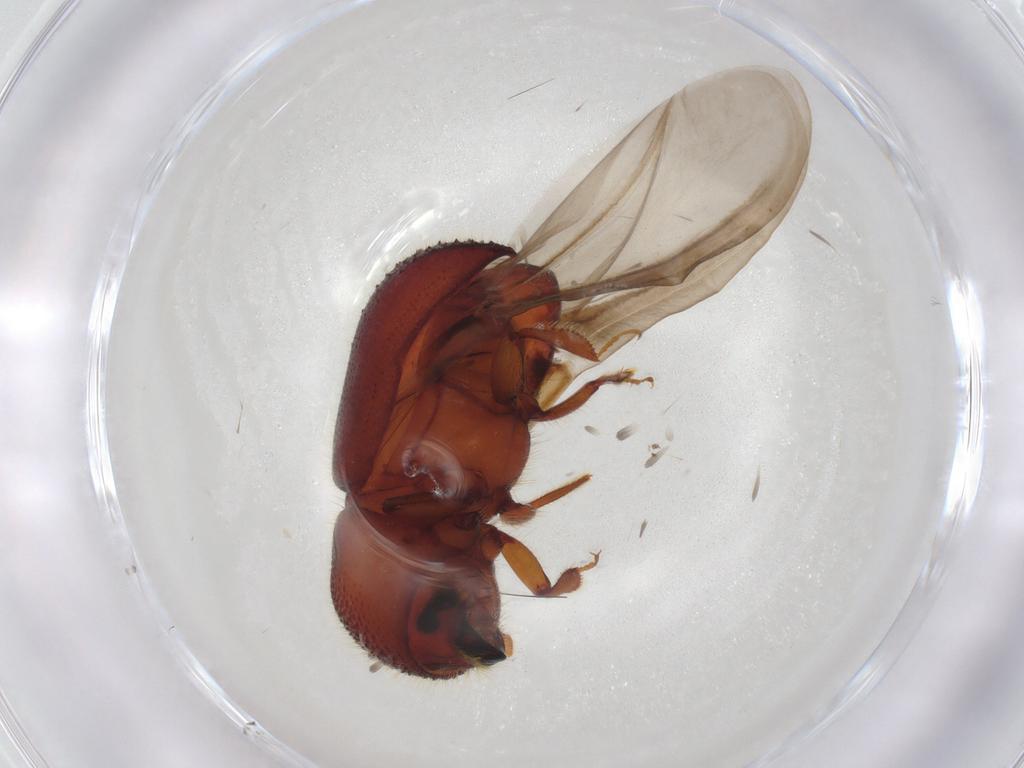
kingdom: Animalia
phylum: Arthropoda
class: Insecta
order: Coleoptera
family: Curculionidae
